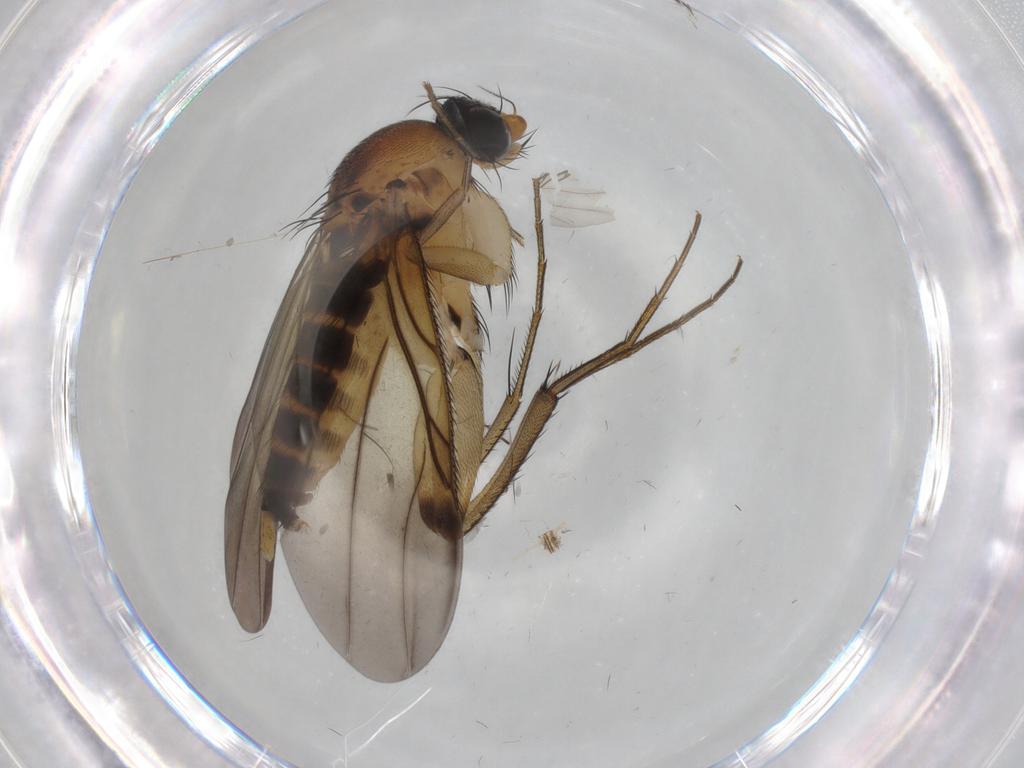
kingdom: Animalia
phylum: Arthropoda
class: Insecta
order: Diptera
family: Phoridae
